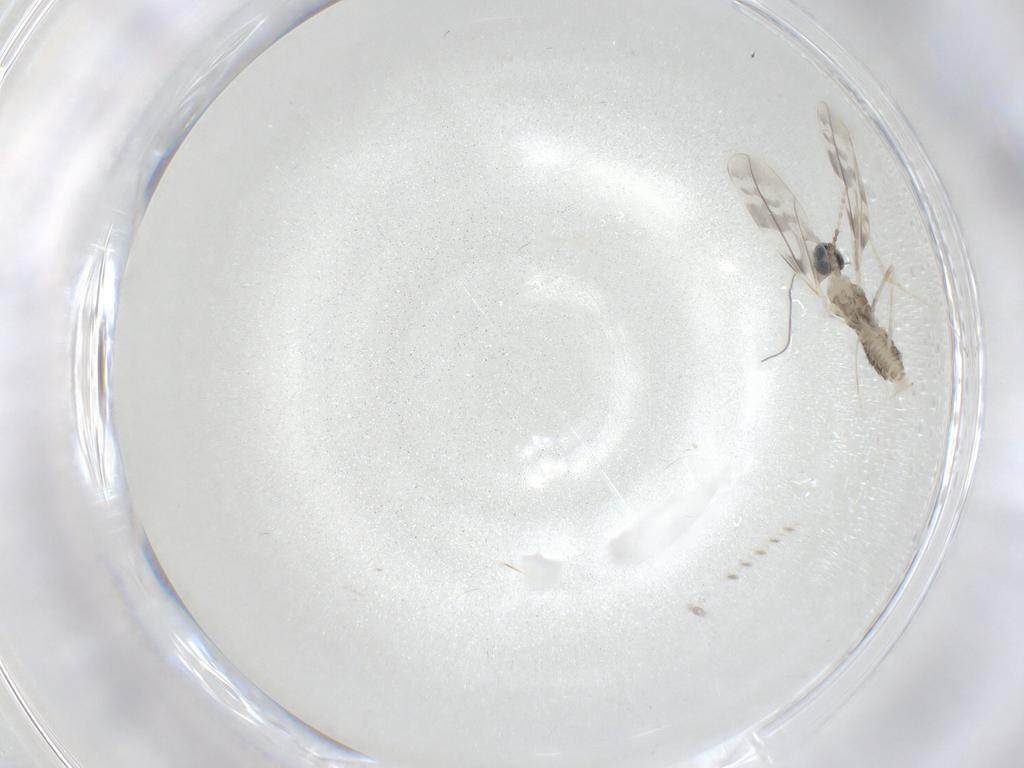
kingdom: Animalia
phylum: Arthropoda
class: Insecta
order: Diptera
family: Cecidomyiidae
